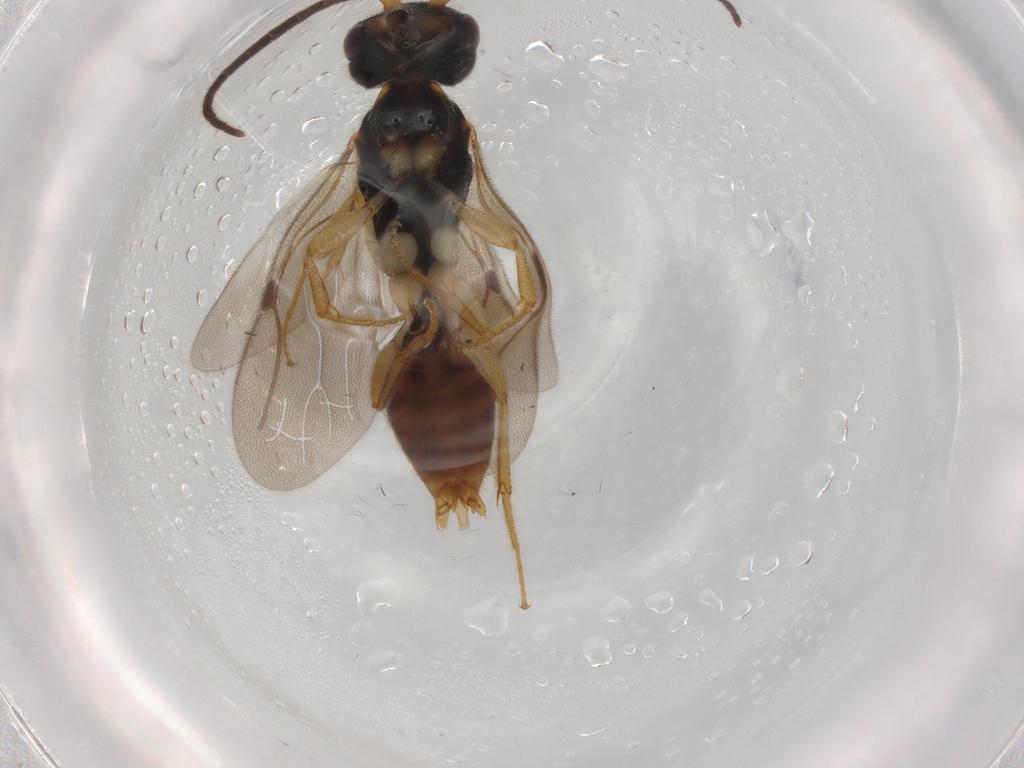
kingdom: Animalia
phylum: Arthropoda
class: Insecta
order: Hymenoptera
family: Bethylidae
